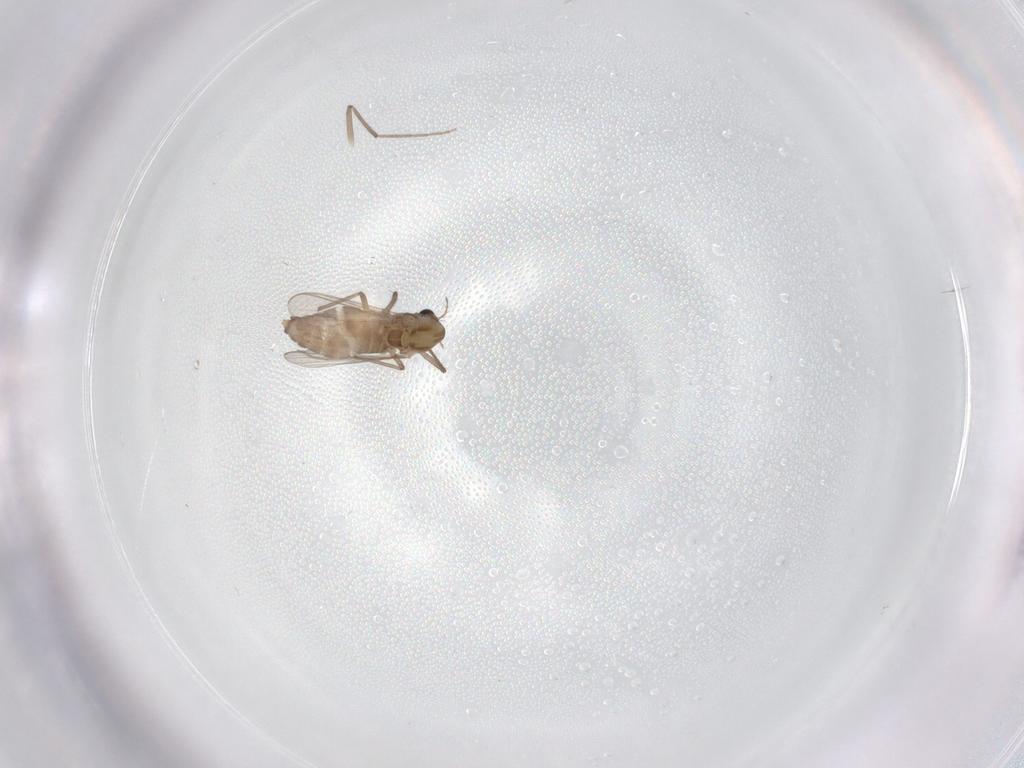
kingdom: Animalia
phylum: Arthropoda
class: Insecta
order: Diptera
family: Chironomidae
